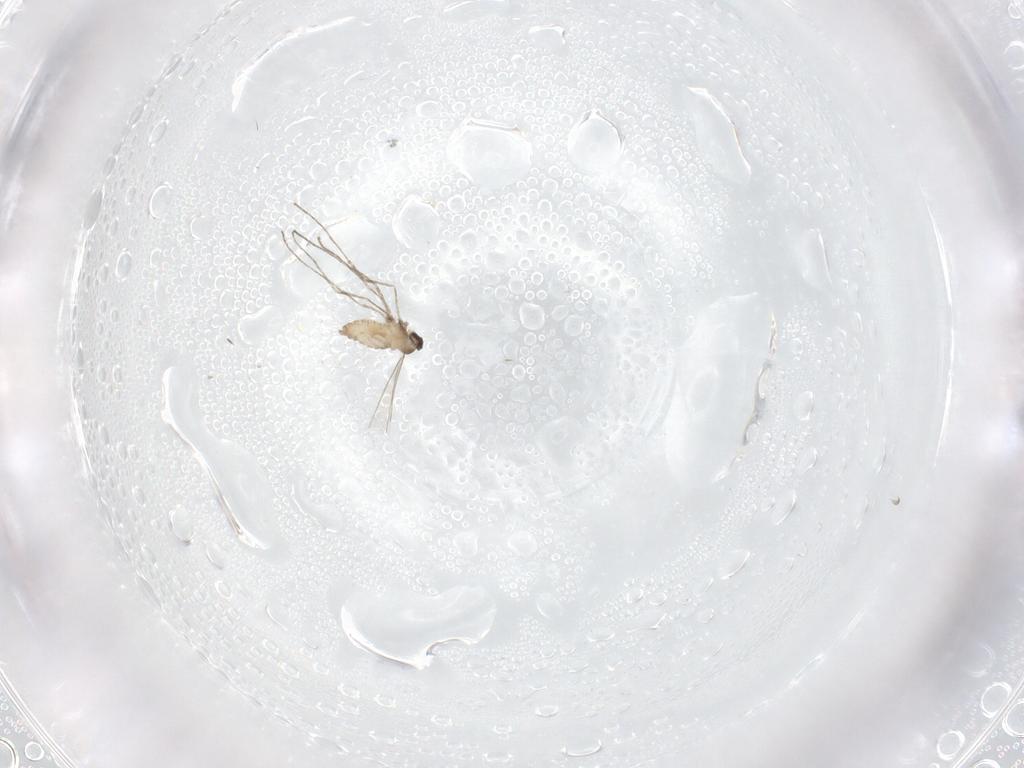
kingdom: Animalia
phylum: Arthropoda
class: Insecta
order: Diptera
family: Cecidomyiidae
